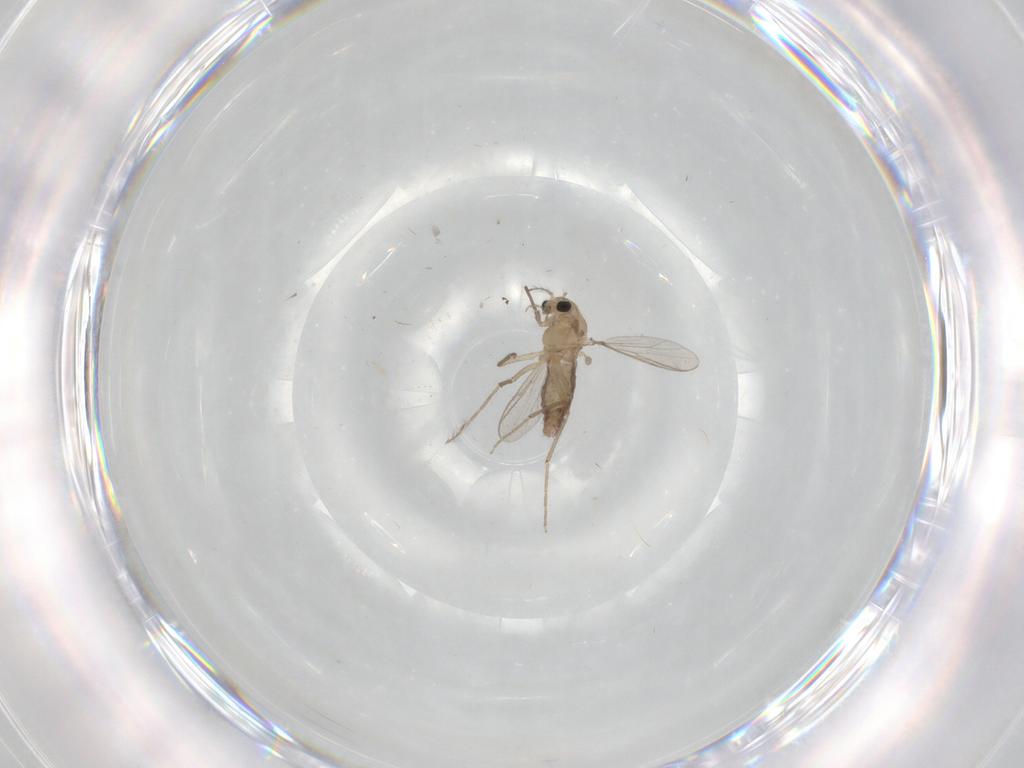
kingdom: Animalia
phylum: Arthropoda
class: Insecta
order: Diptera
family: Chironomidae
